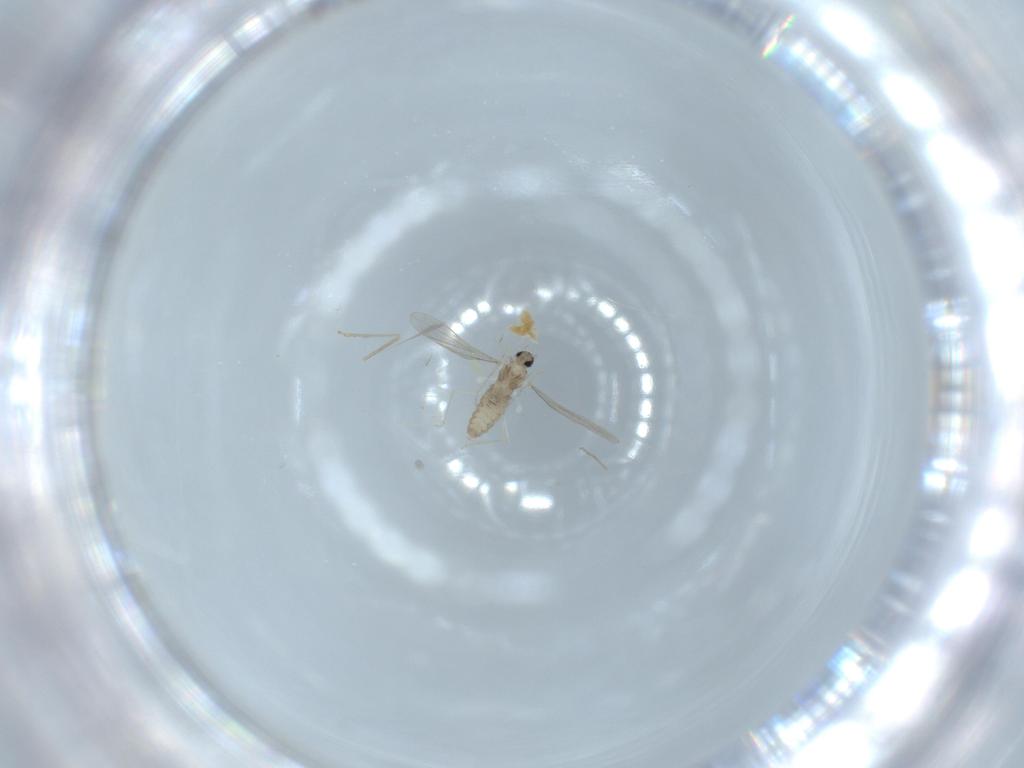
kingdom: Animalia
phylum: Arthropoda
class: Insecta
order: Diptera
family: Cecidomyiidae
